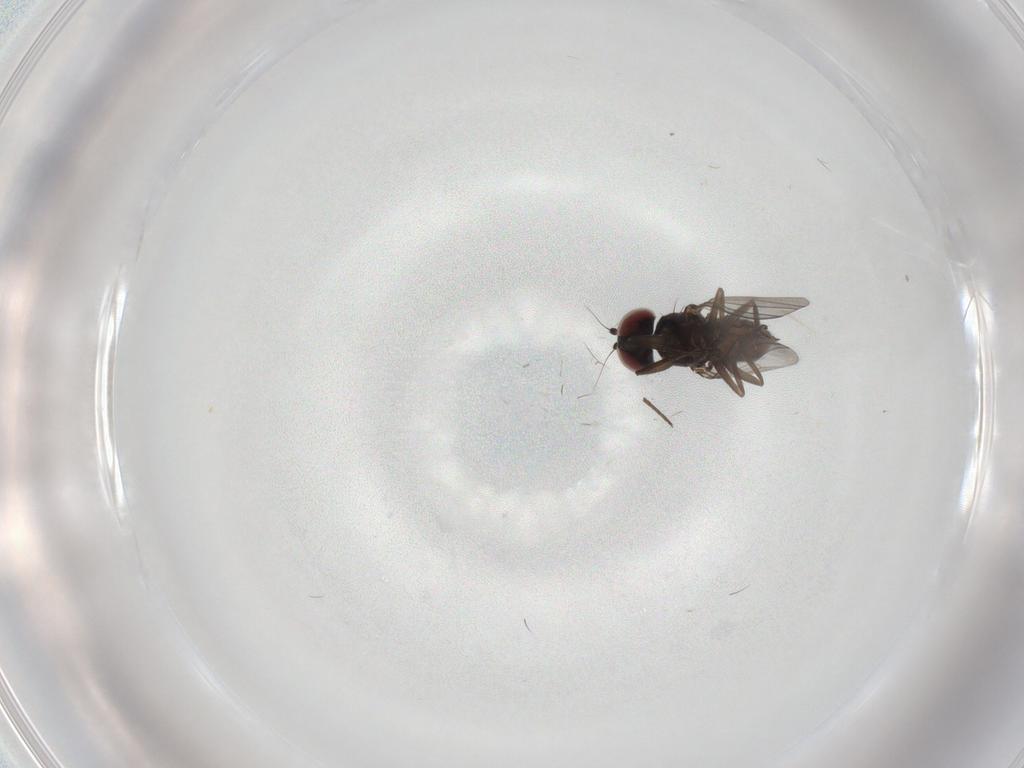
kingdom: Animalia
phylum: Arthropoda
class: Insecta
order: Diptera
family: Dolichopodidae
